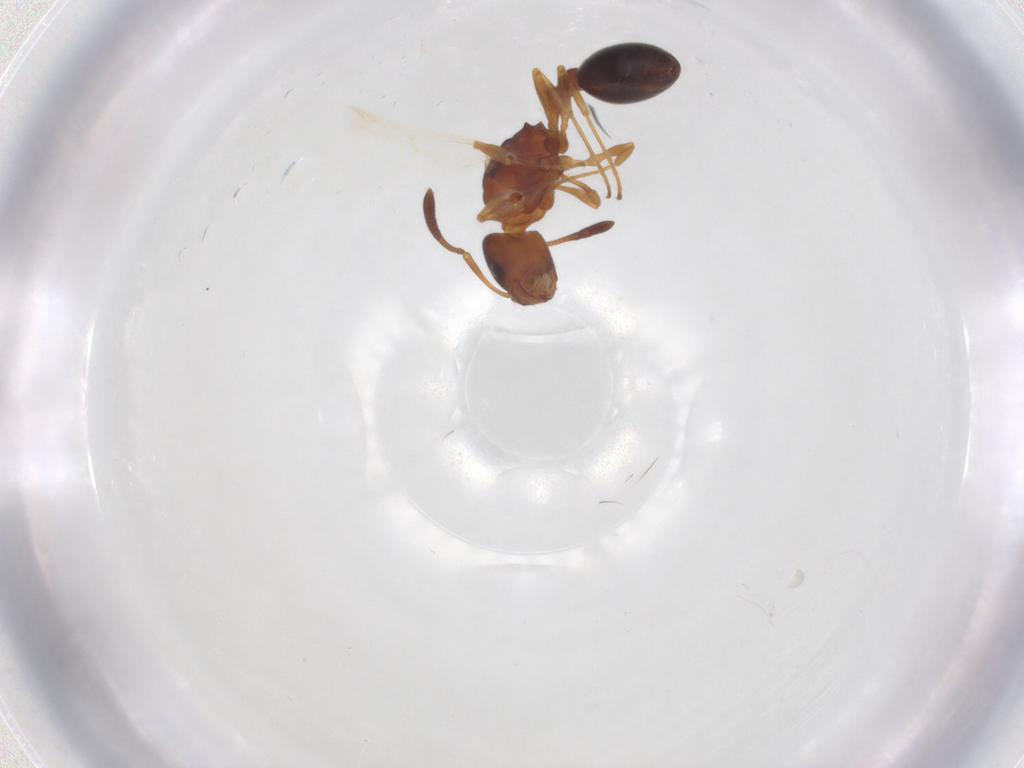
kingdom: Animalia
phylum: Arthropoda
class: Insecta
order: Hymenoptera
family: Formicidae
